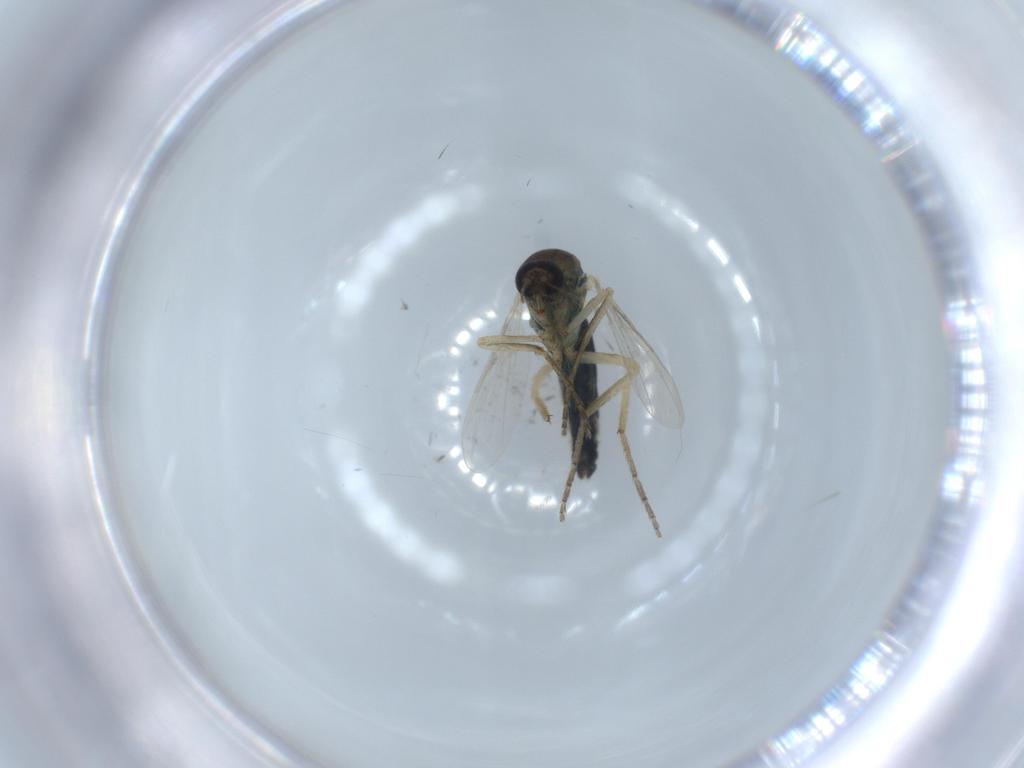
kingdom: Animalia
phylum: Arthropoda
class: Insecta
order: Diptera
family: Ceratopogonidae
